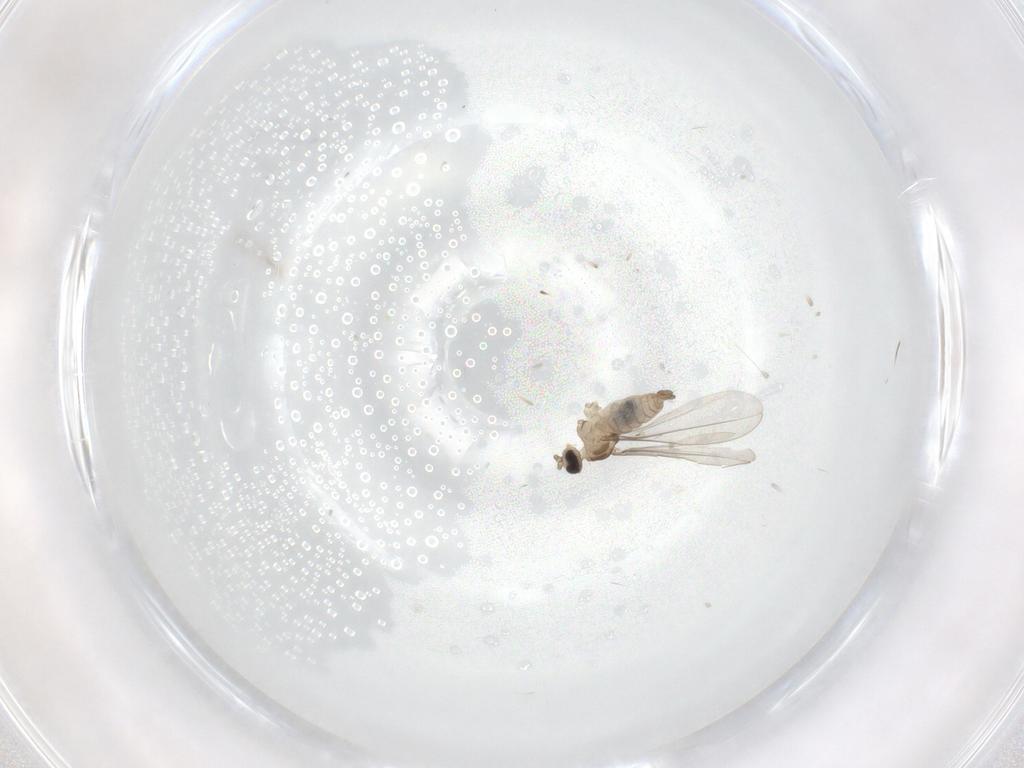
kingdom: Animalia
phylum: Arthropoda
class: Insecta
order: Diptera
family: Cecidomyiidae
